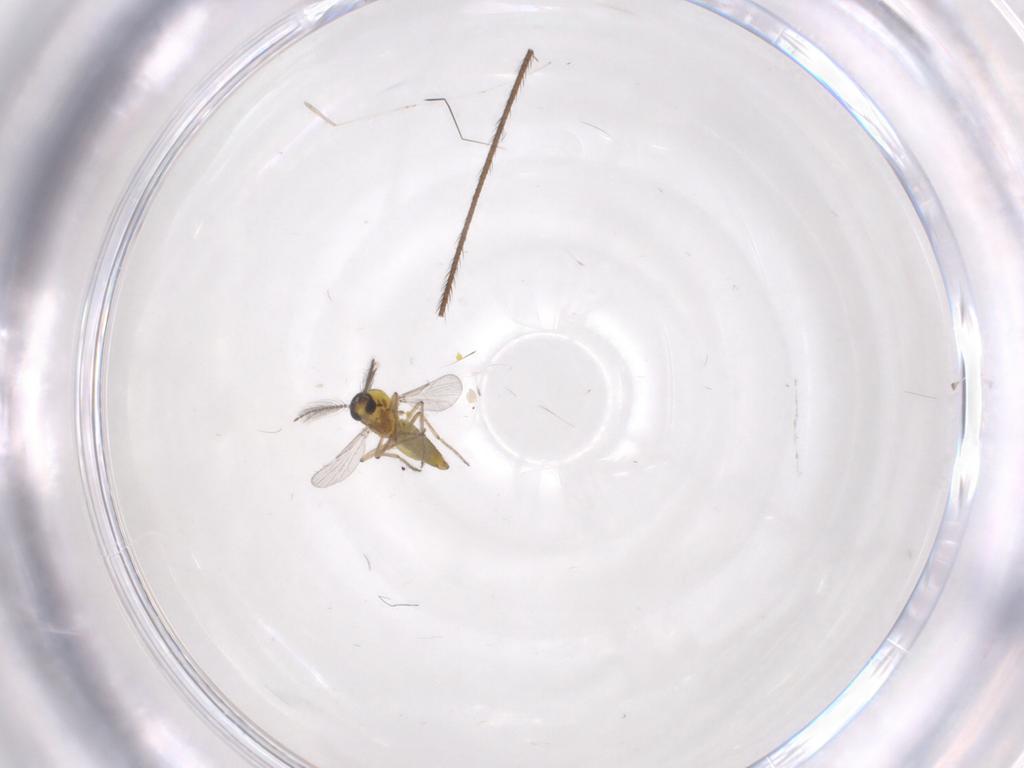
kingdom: Animalia
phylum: Arthropoda
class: Insecta
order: Diptera
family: Ceratopogonidae
